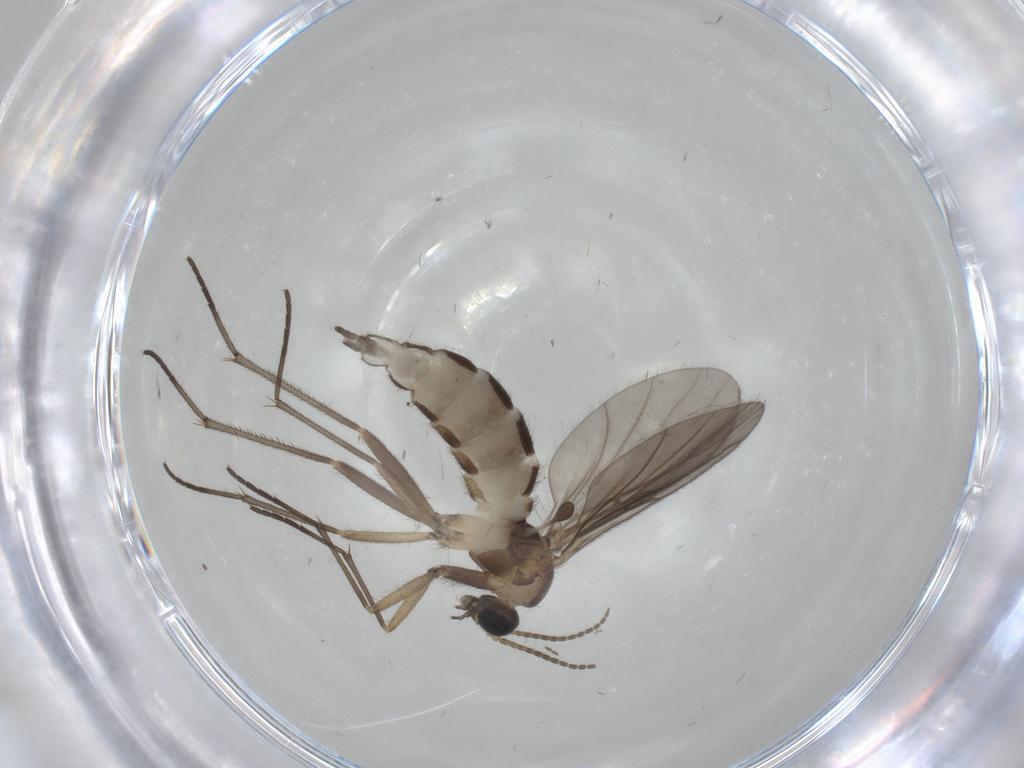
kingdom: Animalia
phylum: Arthropoda
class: Insecta
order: Diptera
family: Sciaridae
